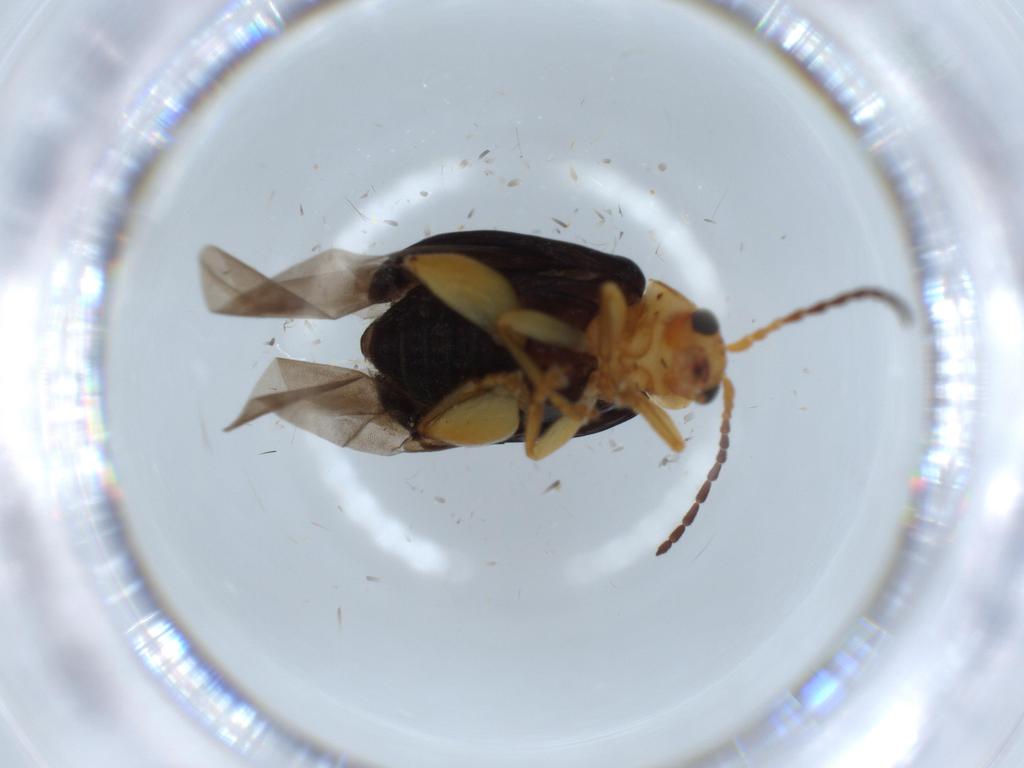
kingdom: Animalia
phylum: Arthropoda
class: Insecta
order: Coleoptera
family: Chrysomelidae
